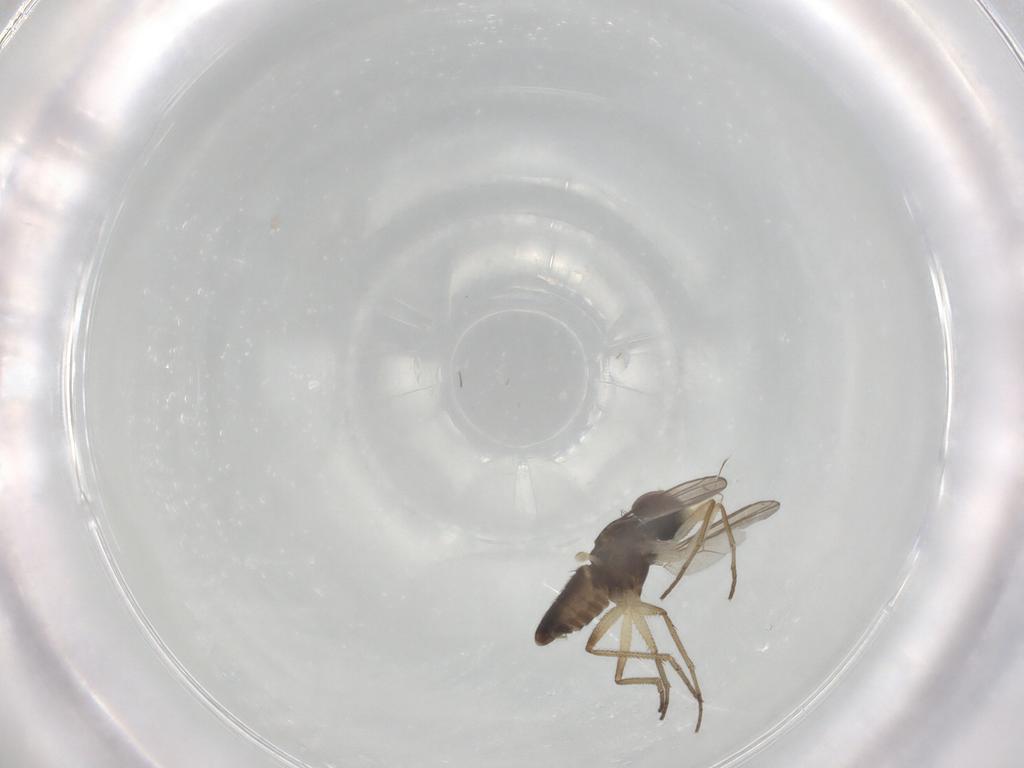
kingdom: Animalia
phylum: Arthropoda
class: Insecta
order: Diptera
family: Dolichopodidae
